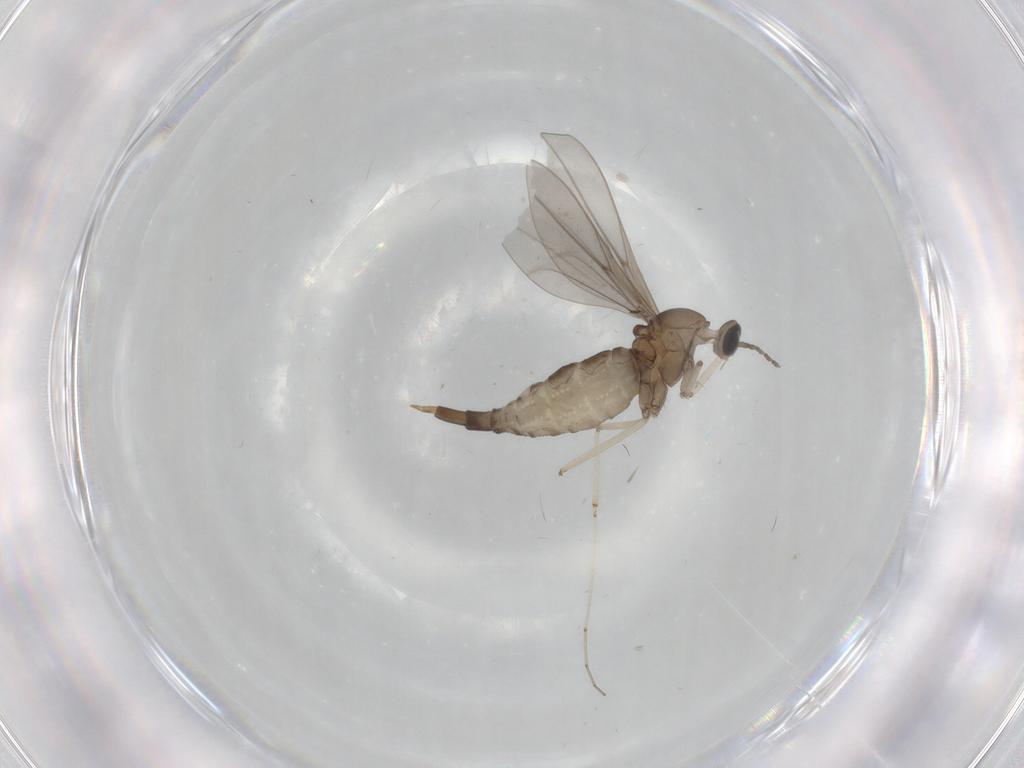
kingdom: Animalia
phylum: Arthropoda
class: Insecta
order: Diptera
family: Cecidomyiidae
